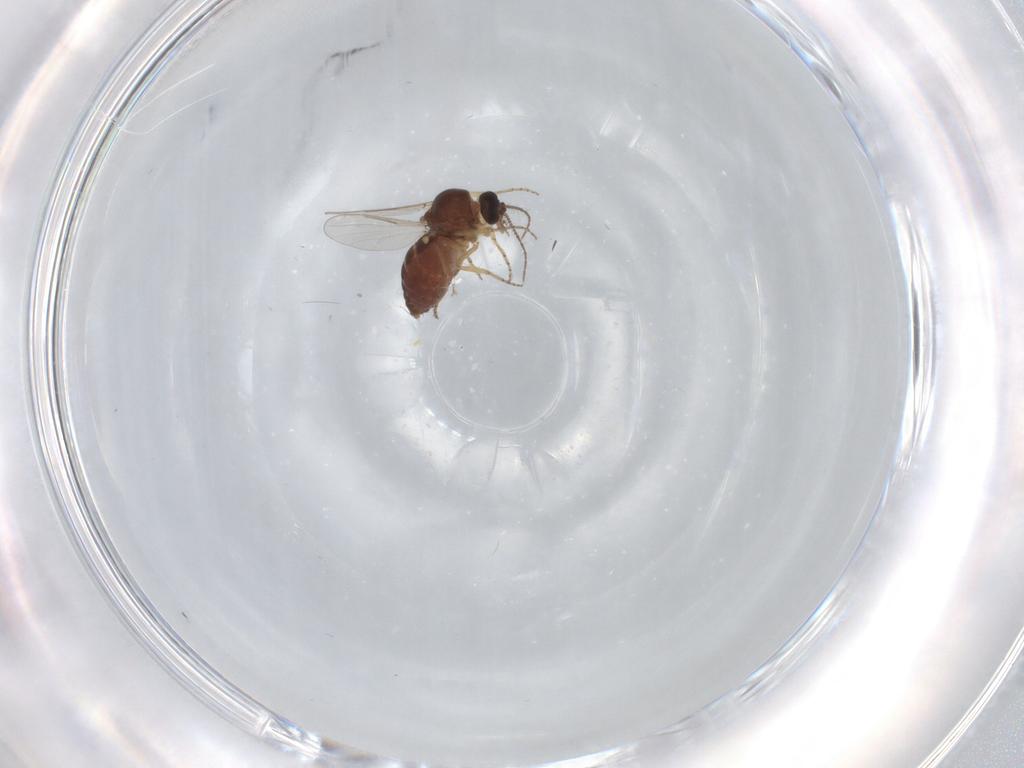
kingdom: Animalia
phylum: Arthropoda
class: Insecta
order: Diptera
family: Ceratopogonidae
